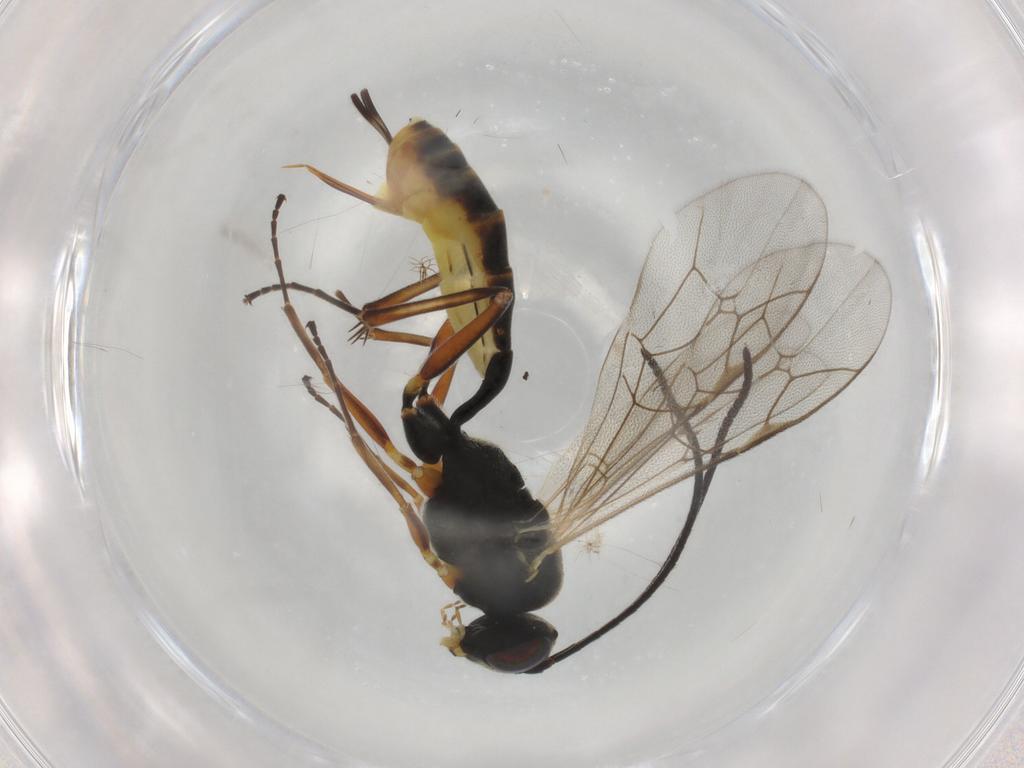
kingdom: Animalia
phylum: Arthropoda
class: Insecta
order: Hymenoptera
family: Ichneumonidae
